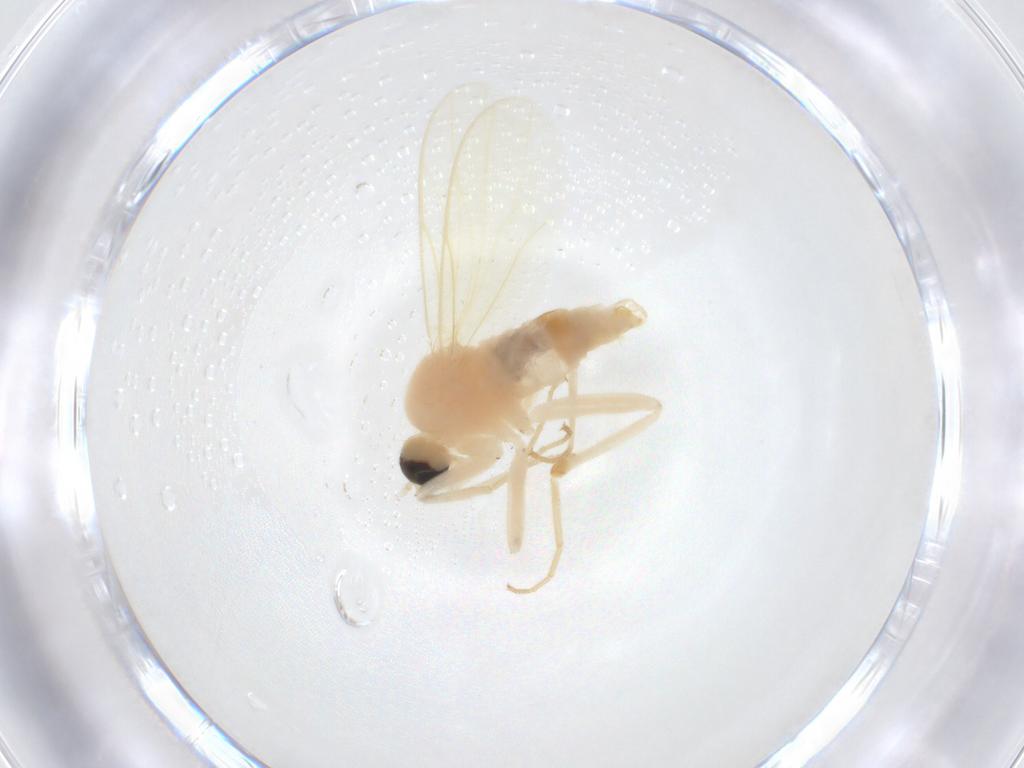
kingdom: Animalia
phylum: Arthropoda
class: Insecta
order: Diptera
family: Hybotidae
